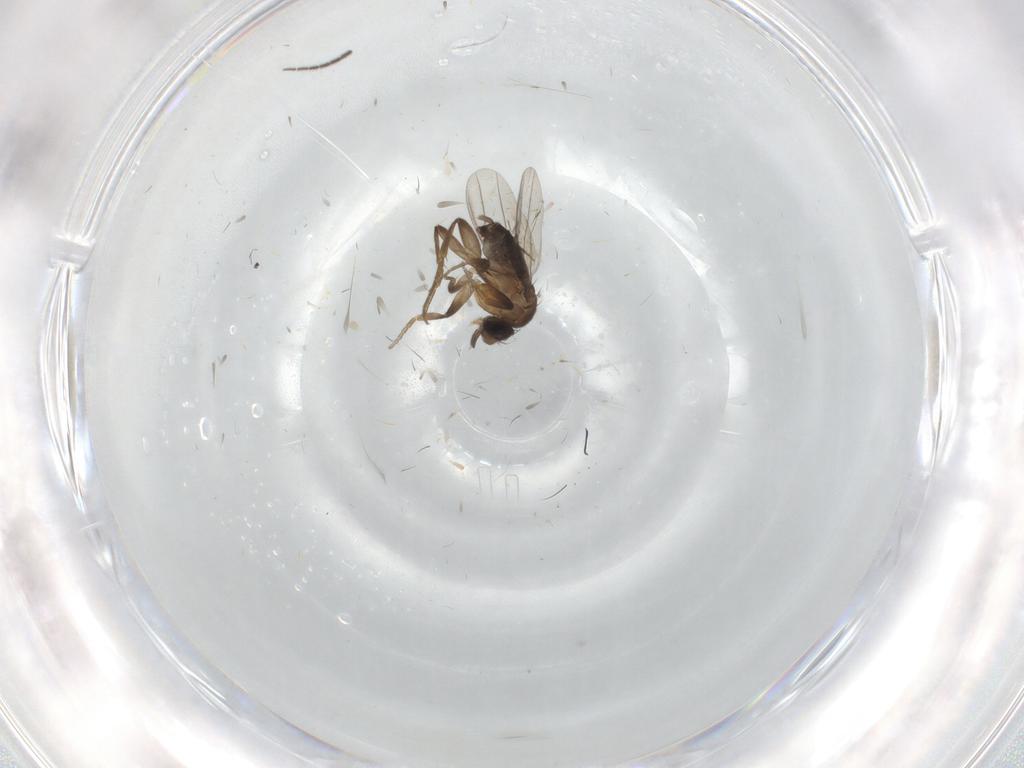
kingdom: Animalia
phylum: Arthropoda
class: Insecta
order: Diptera
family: Sciaridae
